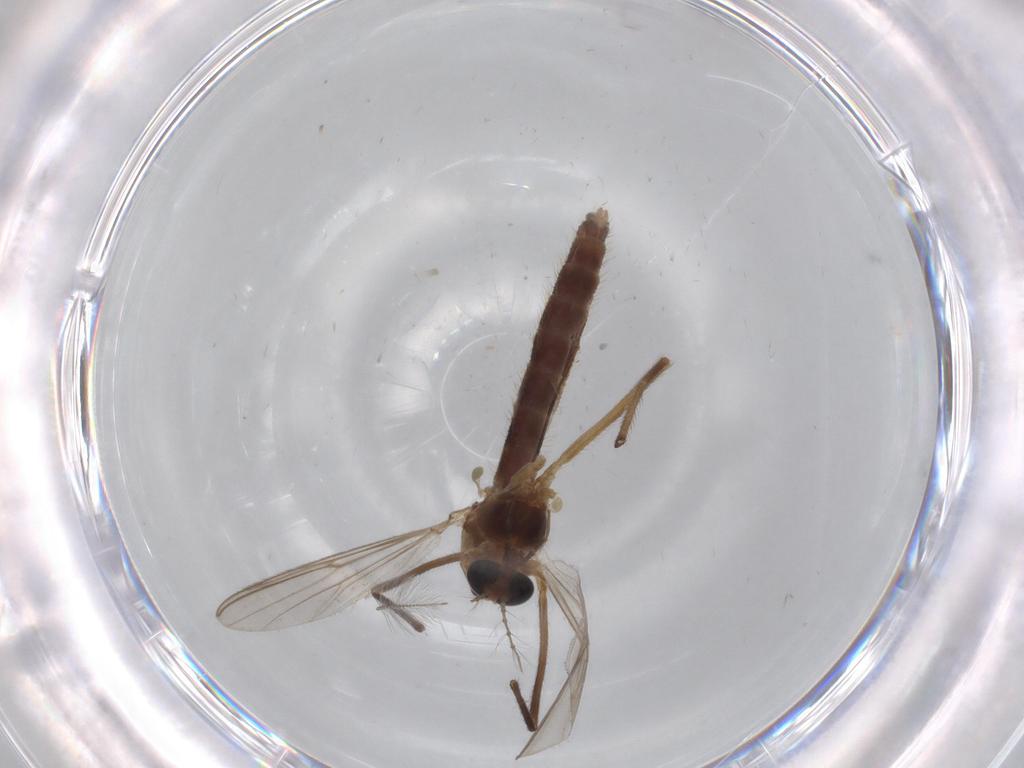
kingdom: Animalia
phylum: Arthropoda
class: Insecta
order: Diptera
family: Chironomidae
